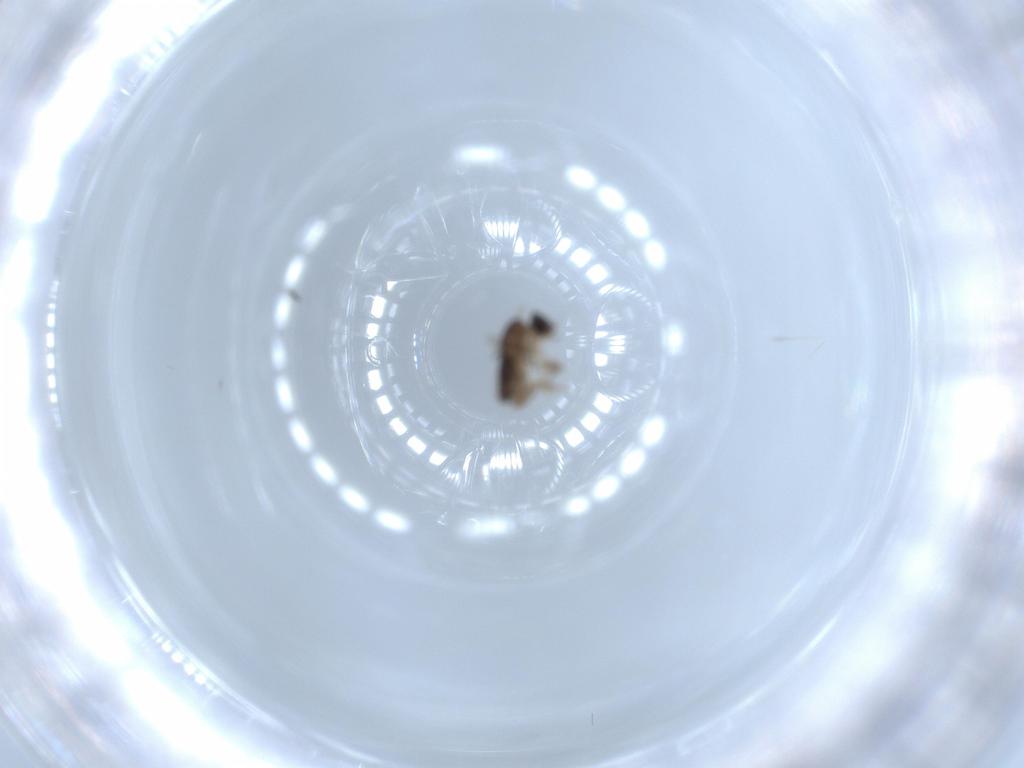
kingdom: Animalia
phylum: Arthropoda
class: Insecta
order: Diptera
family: Phoridae
